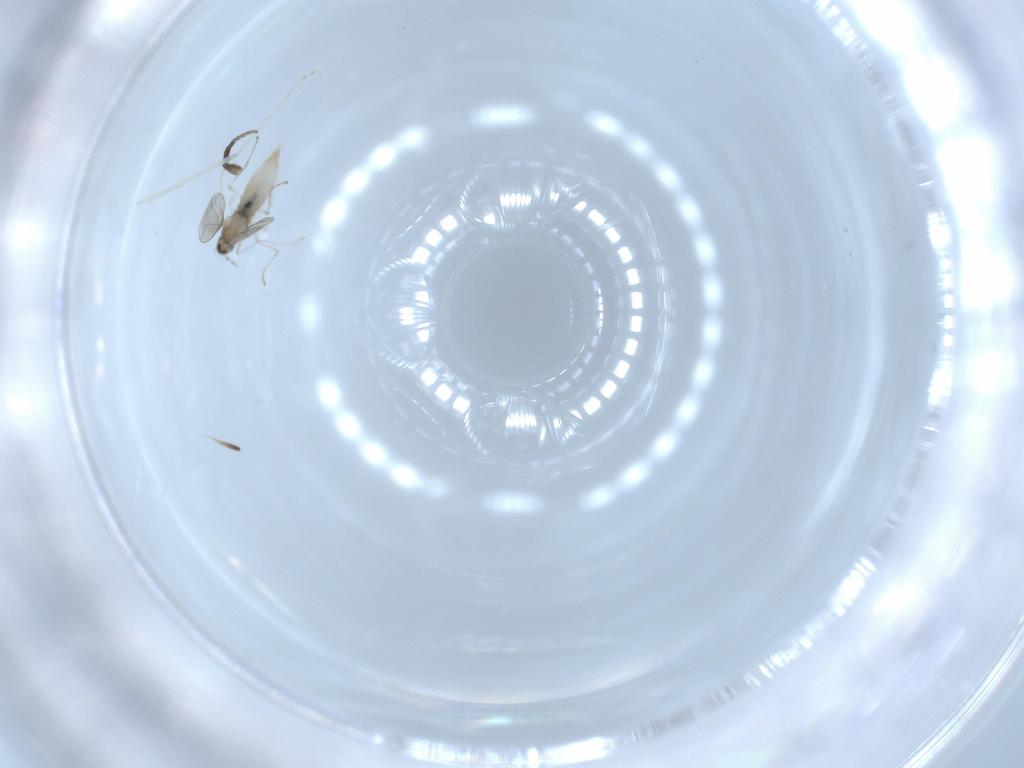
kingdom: Animalia
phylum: Arthropoda
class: Insecta
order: Diptera
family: Cecidomyiidae
